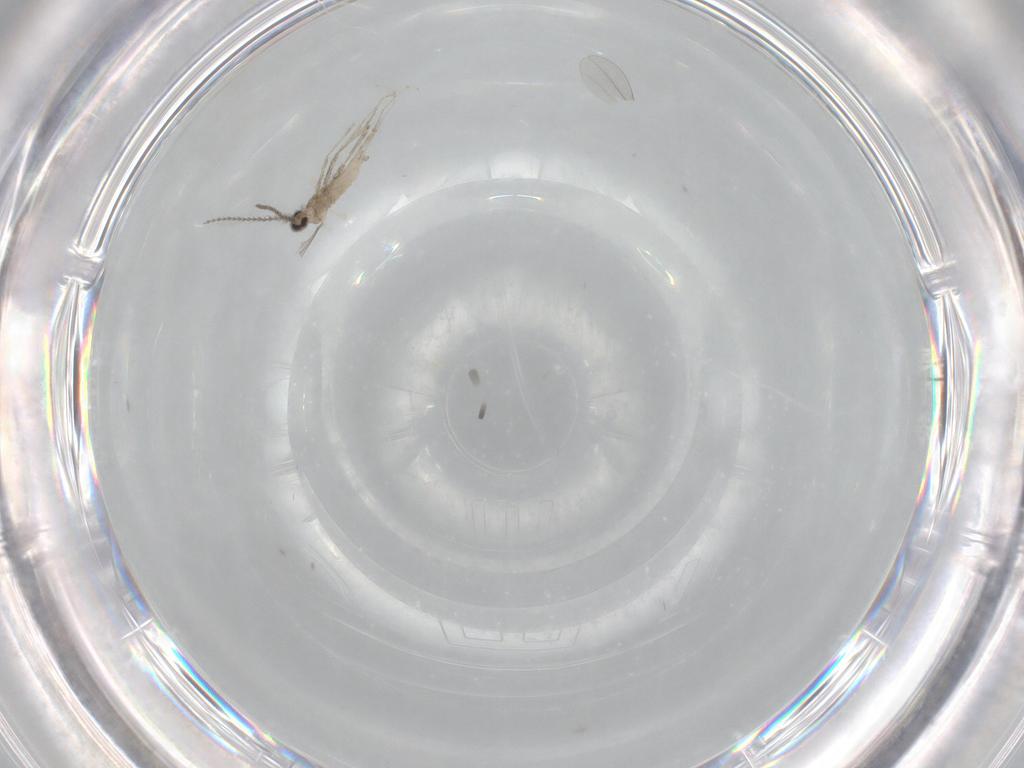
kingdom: Animalia
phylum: Arthropoda
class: Insecta
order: Diptera
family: Cecidomyiidae
